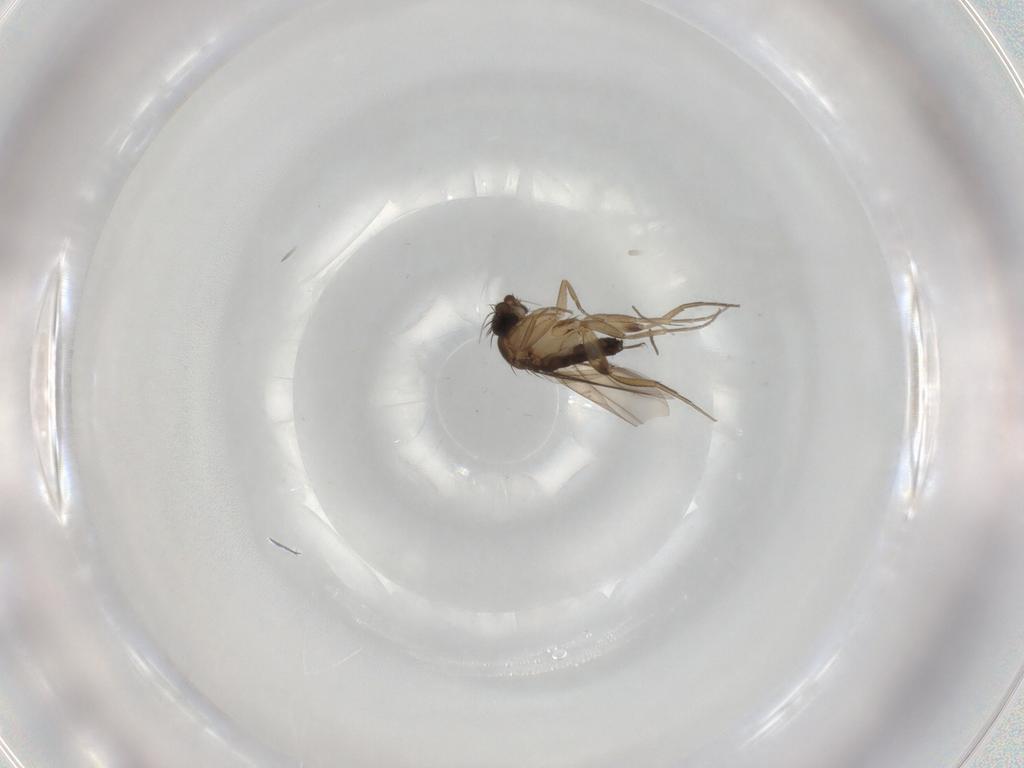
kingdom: Animalia
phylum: Arthropoda
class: Insecta
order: Diptera
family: Phoridae
